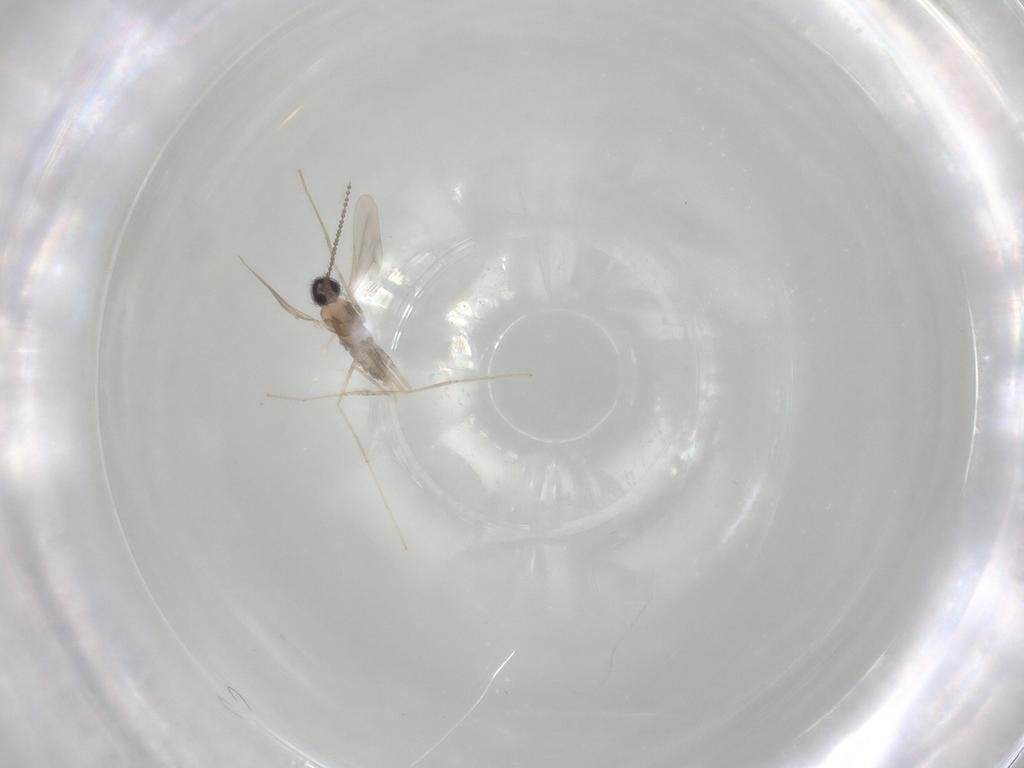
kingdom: Animalia
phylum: Arthropoda
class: Insecta
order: Diptera
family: Cecidomyiidae
